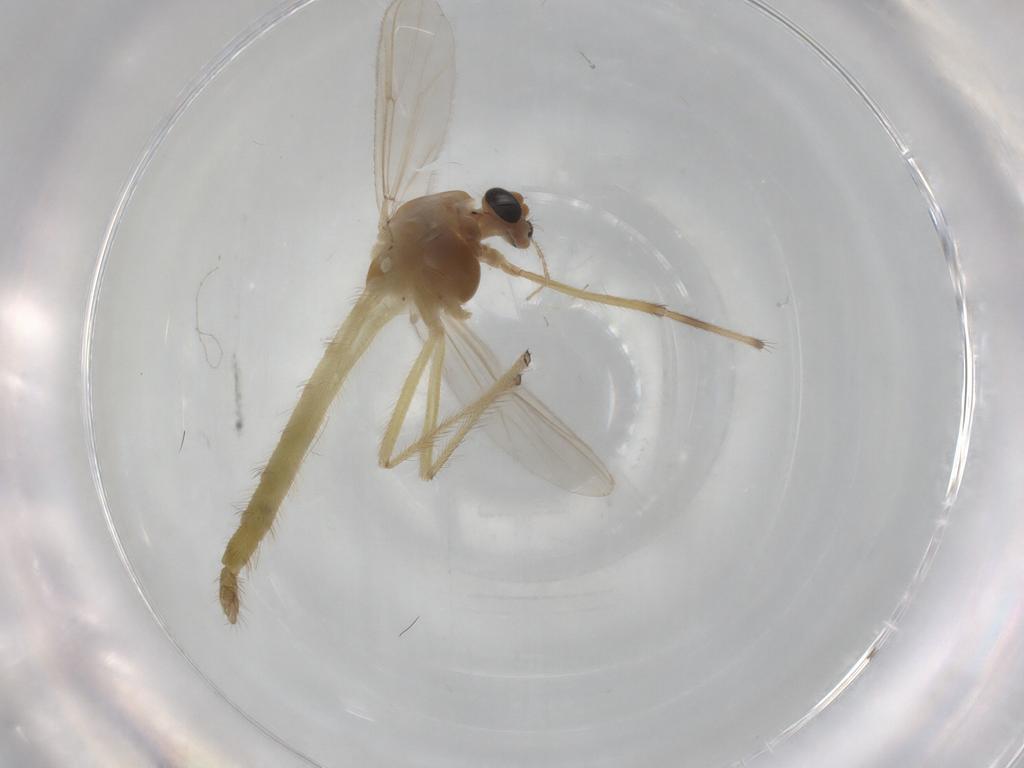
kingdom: Animalia
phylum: Arthropoda
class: Insecta
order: Diptera
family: Chironomidae
